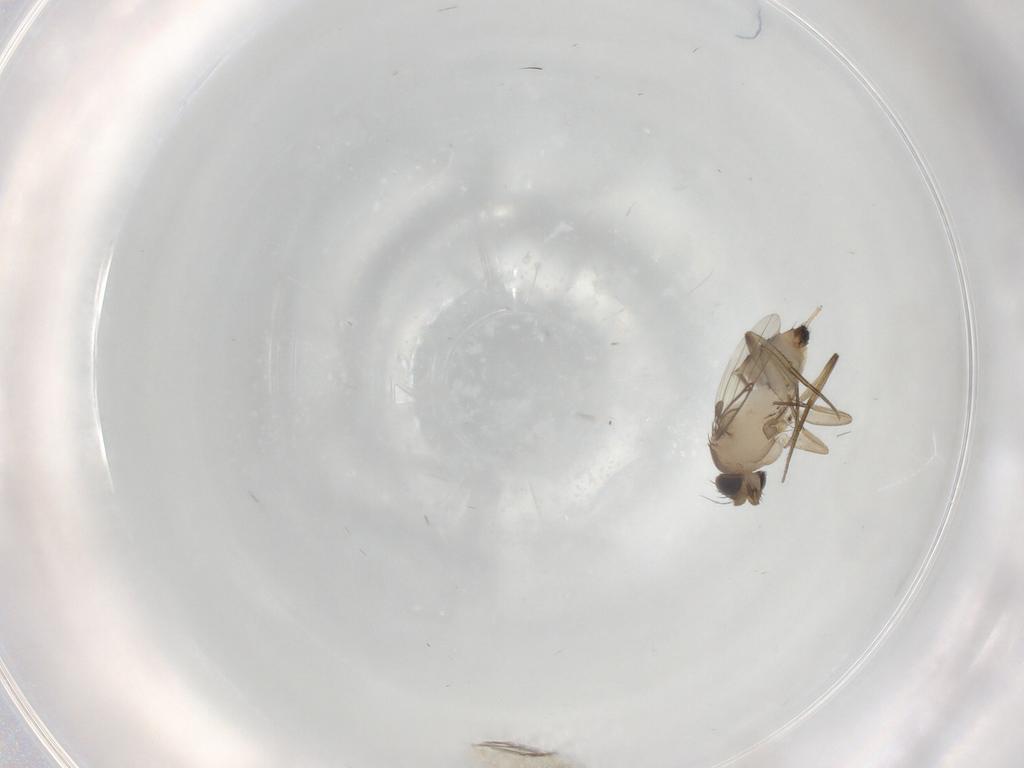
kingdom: Animalia
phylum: Arthropoda
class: Insecta
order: Diptera
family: Phoridae
